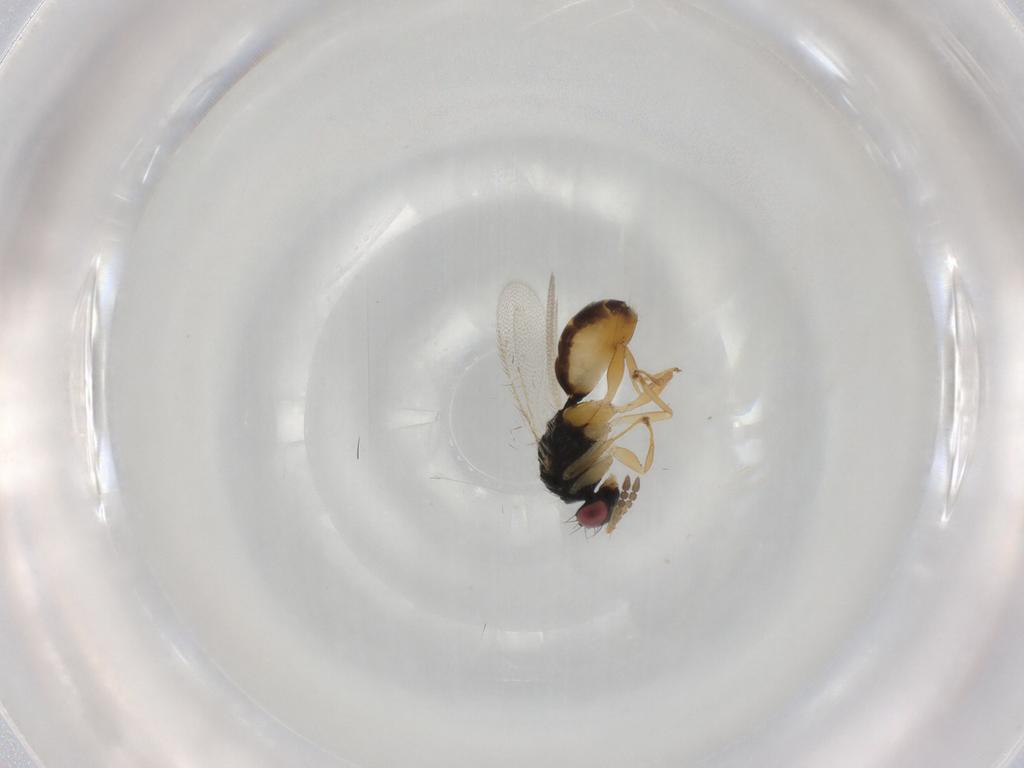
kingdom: Animalia
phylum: Arthropoda
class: Insecta
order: Hymenoptera
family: Eulophidae
